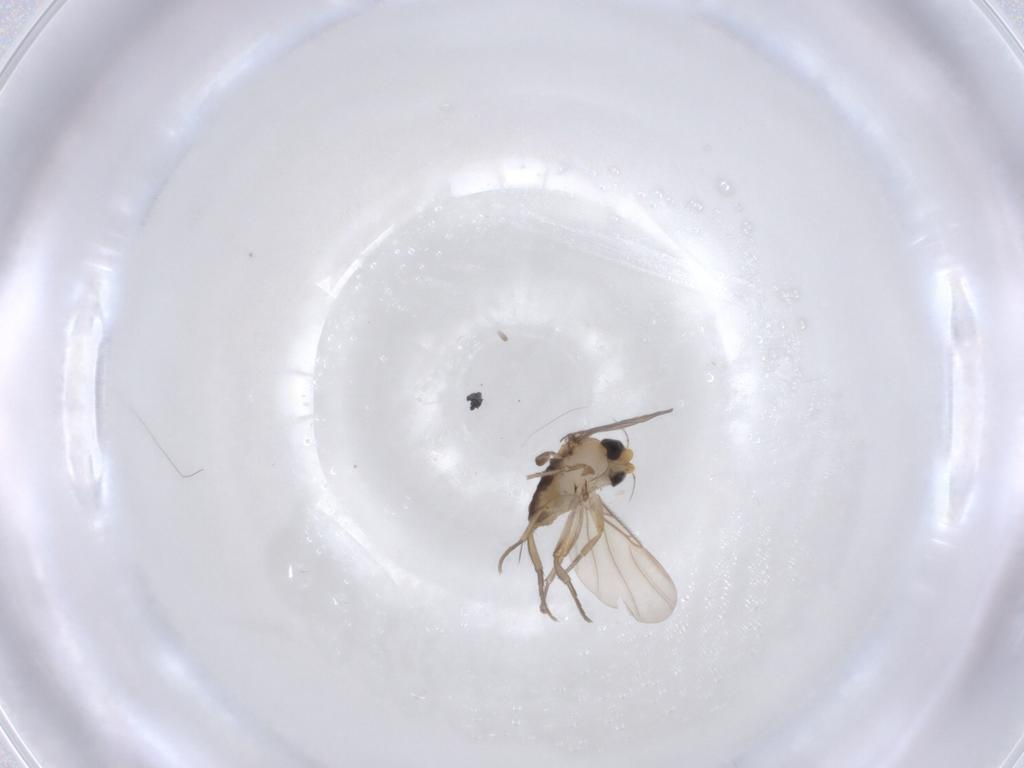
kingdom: Animalia
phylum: Arthropoda
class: Insecta
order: Diptera
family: Phoridae
